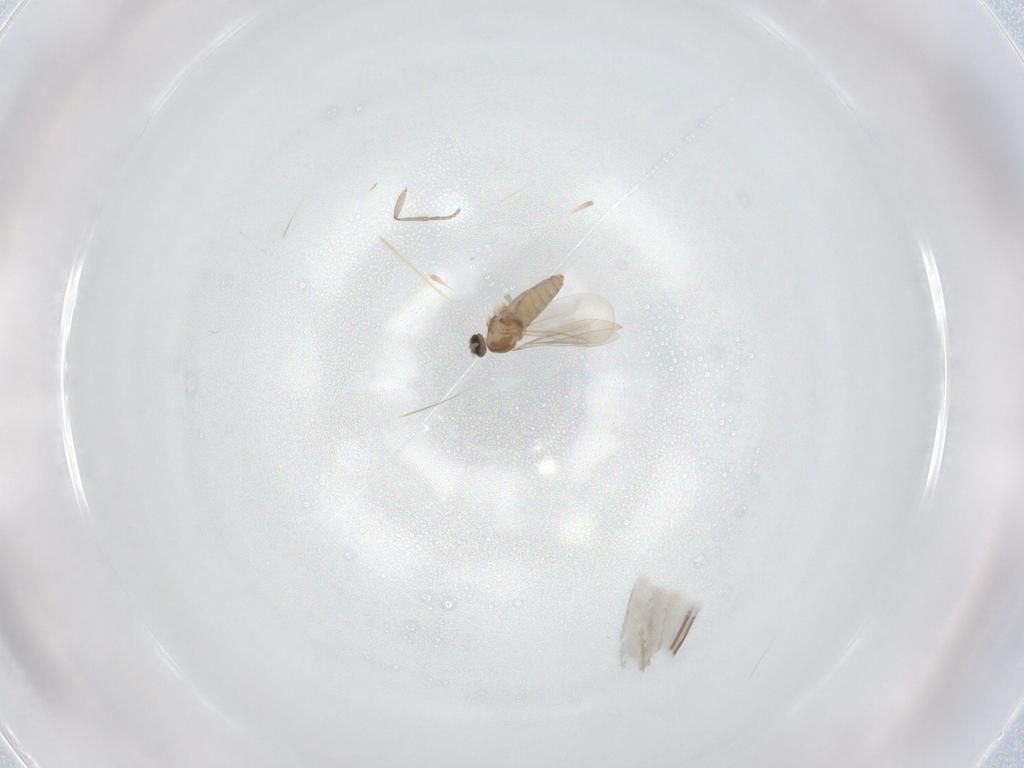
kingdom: Animalia
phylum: Arthropoda
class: Insecta
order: Diptera
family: Sciaridae
